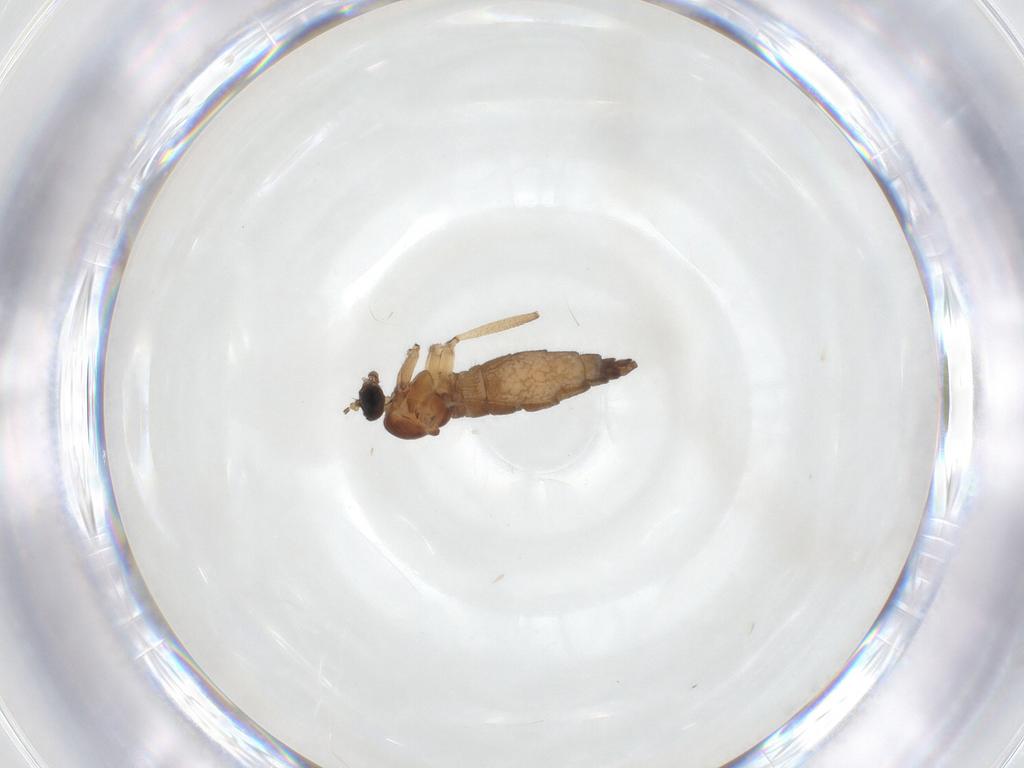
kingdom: Animalia
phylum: Arthropoda
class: Insecta
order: Diptera
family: Sciaridae
